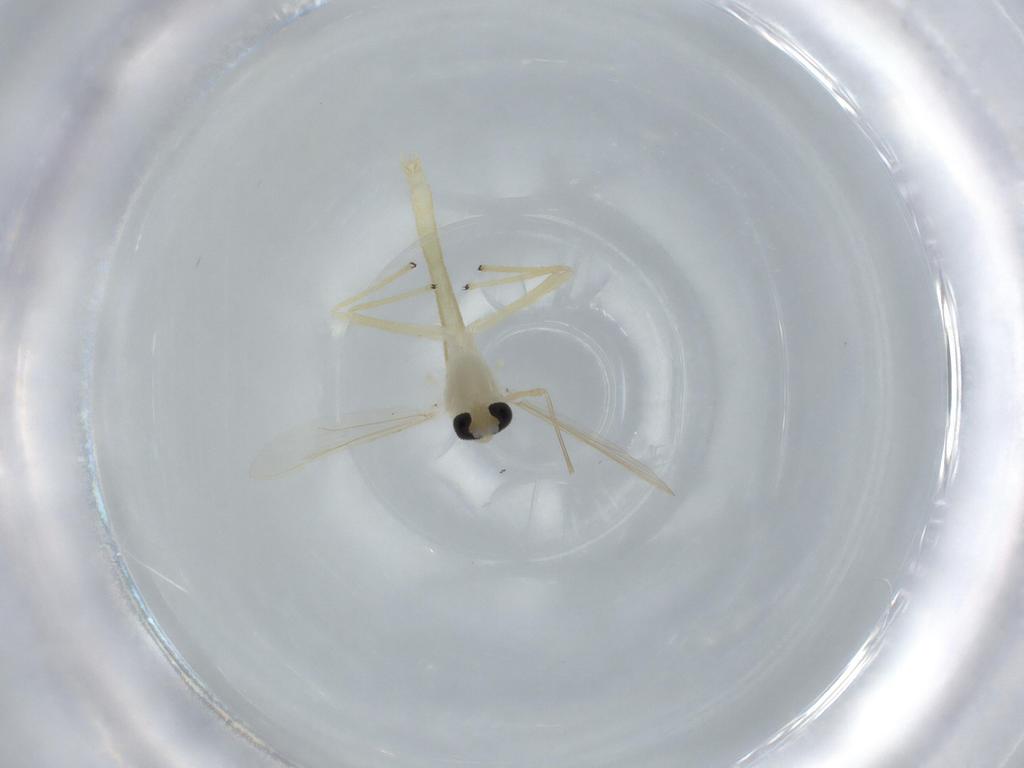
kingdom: Animalia
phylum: Arthropoda
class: Insecta
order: Diptera
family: Chironomidae
